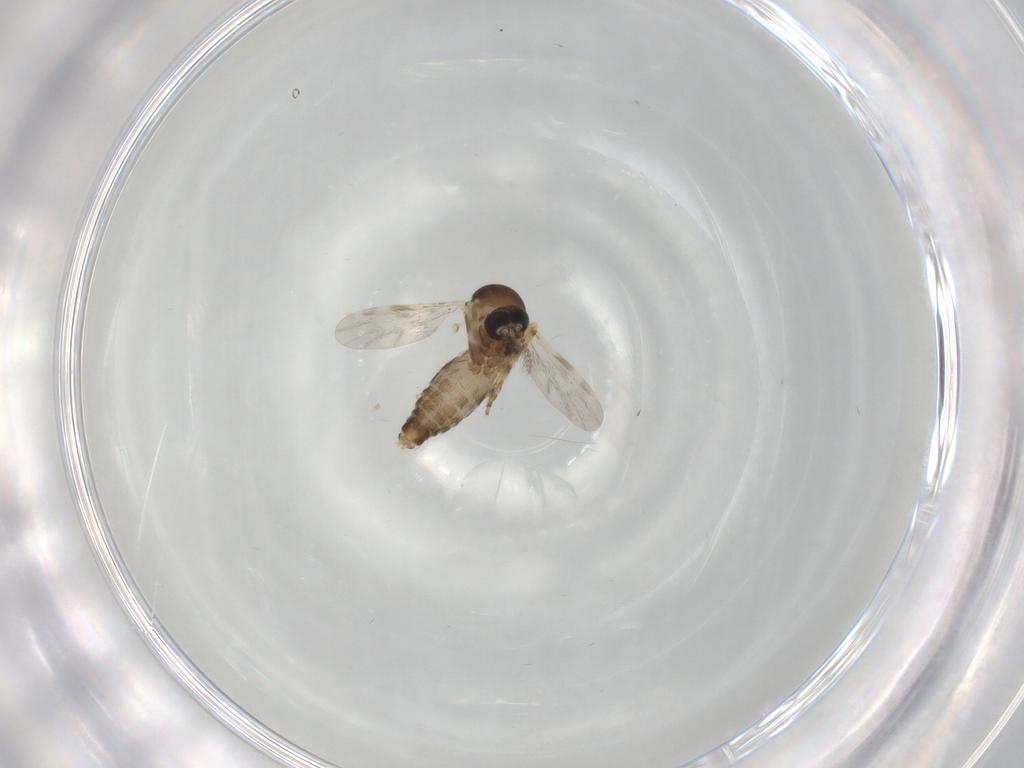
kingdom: Animalia
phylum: Arthropoda
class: Insecta
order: Diptera
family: Ceratopogonidae
